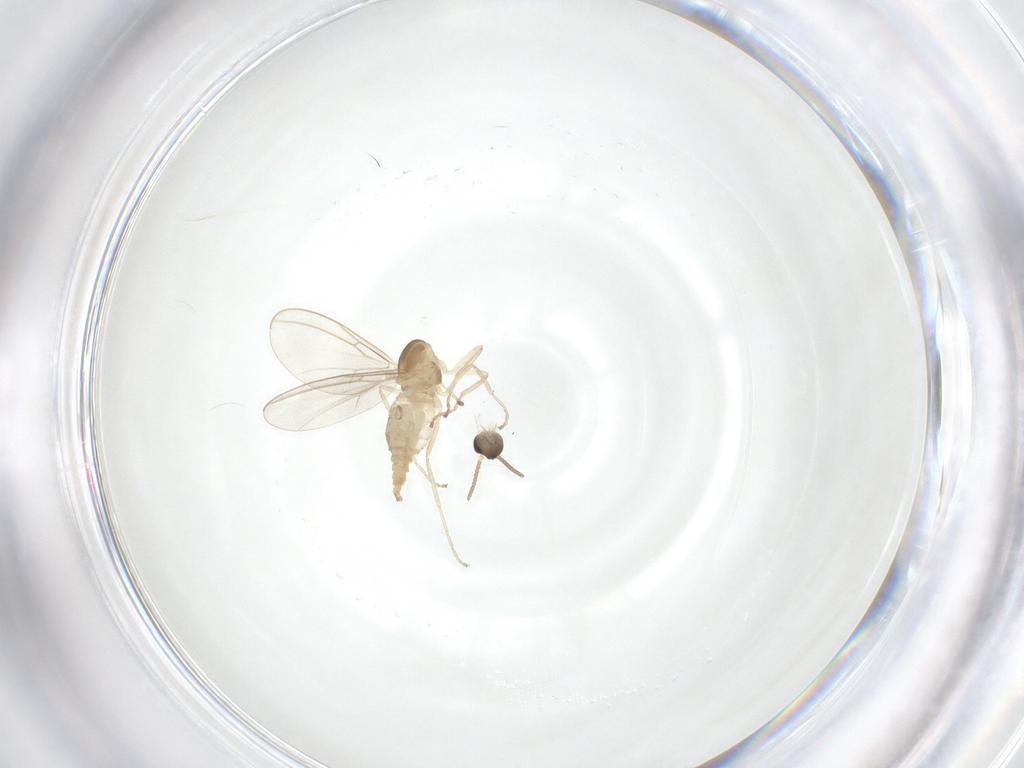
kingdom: Animalia
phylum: Arthropoda
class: Insecta
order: Diptera
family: Cecidomyiidae
